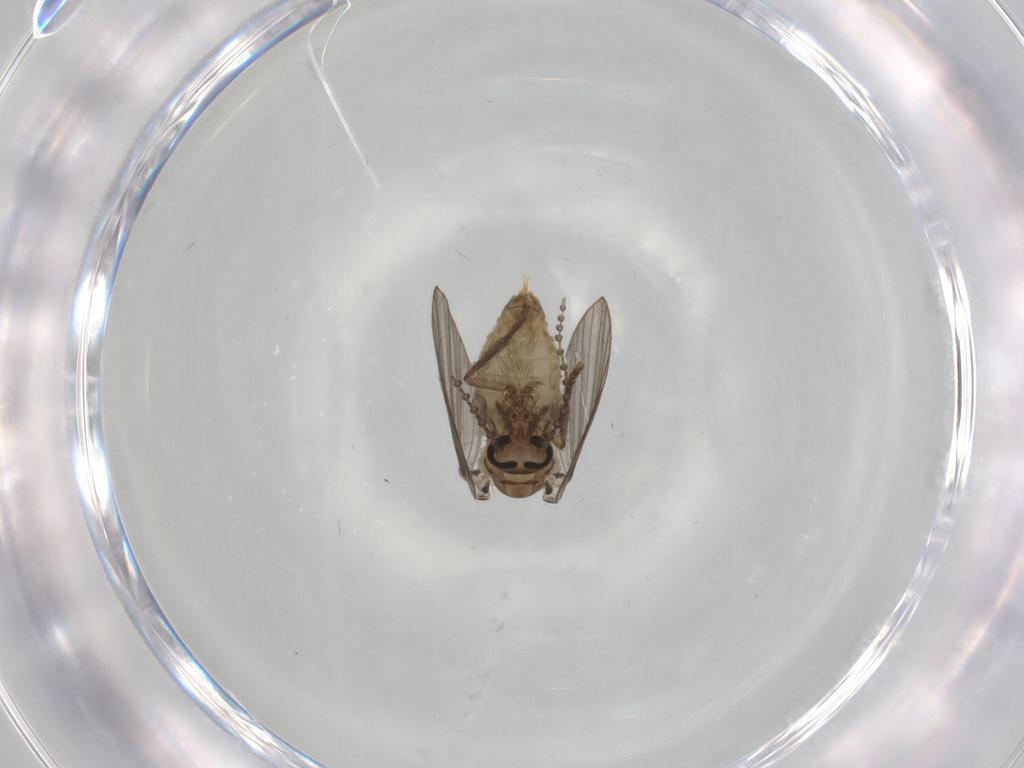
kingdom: Animalia
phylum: Arthropoda
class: Insecta
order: Diptera
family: Psychodidae
